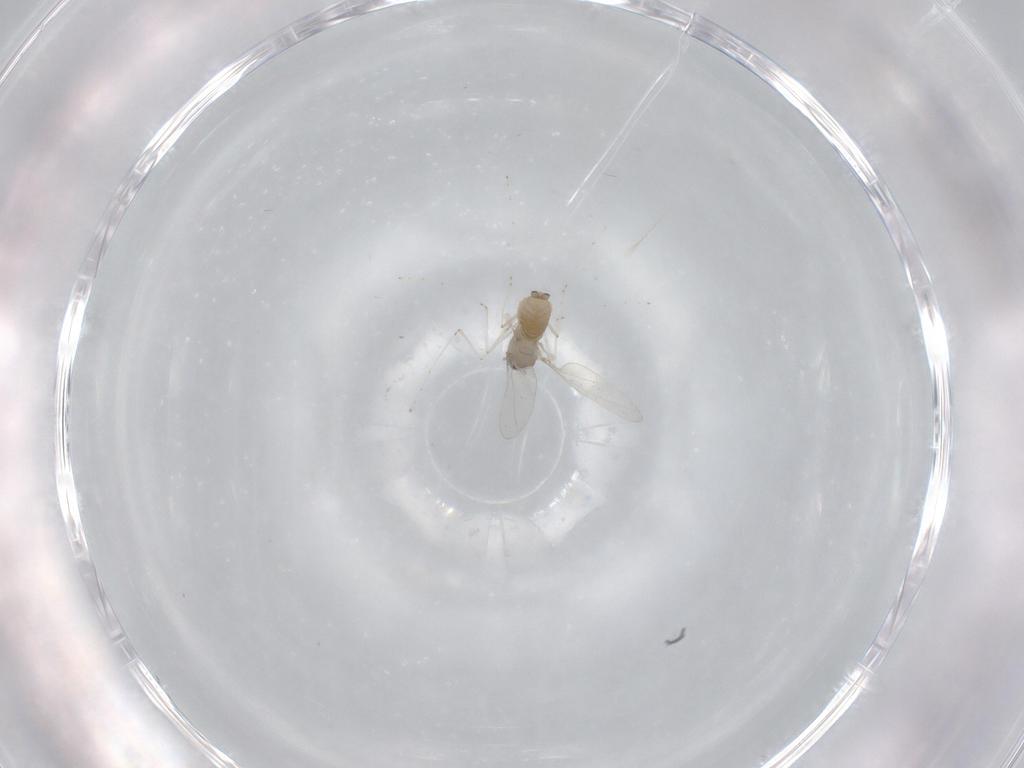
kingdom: Animalia
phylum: Arthropoda
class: Insecta
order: Diptera
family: Cecidomyiidae
